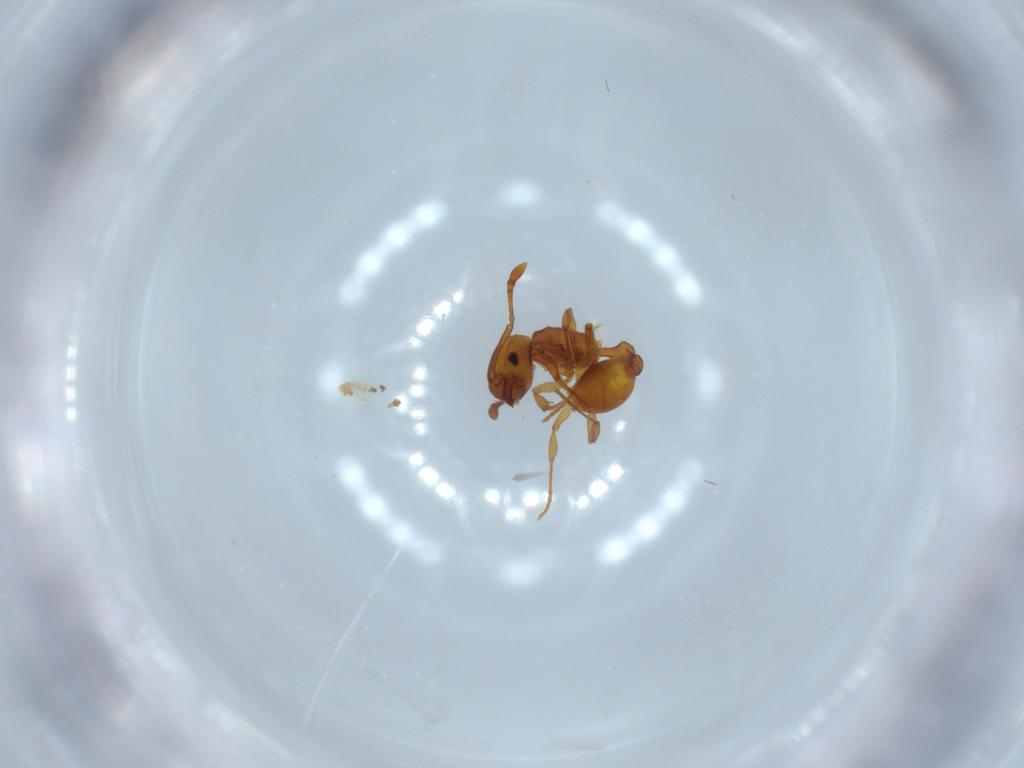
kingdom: Animalia
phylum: Arthropoda
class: Insecta
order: Hymenoptera
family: Formicidae
